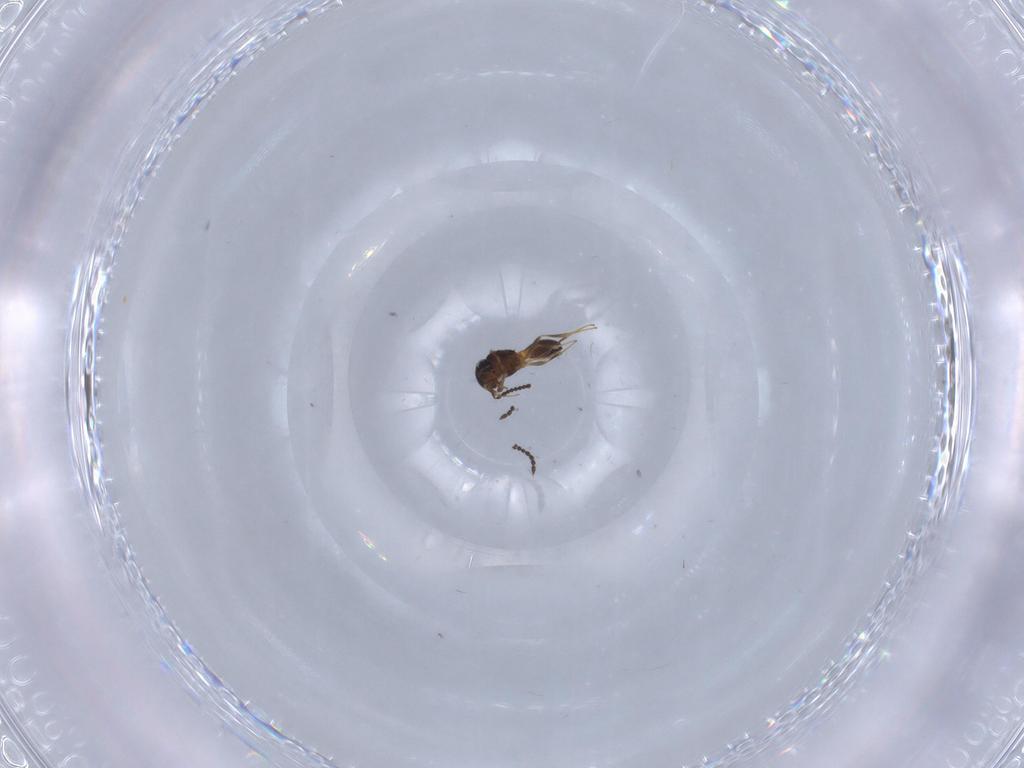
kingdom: Animalia
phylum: Arthropoda
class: Insecta
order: Hymenoptera
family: Scelionidae
